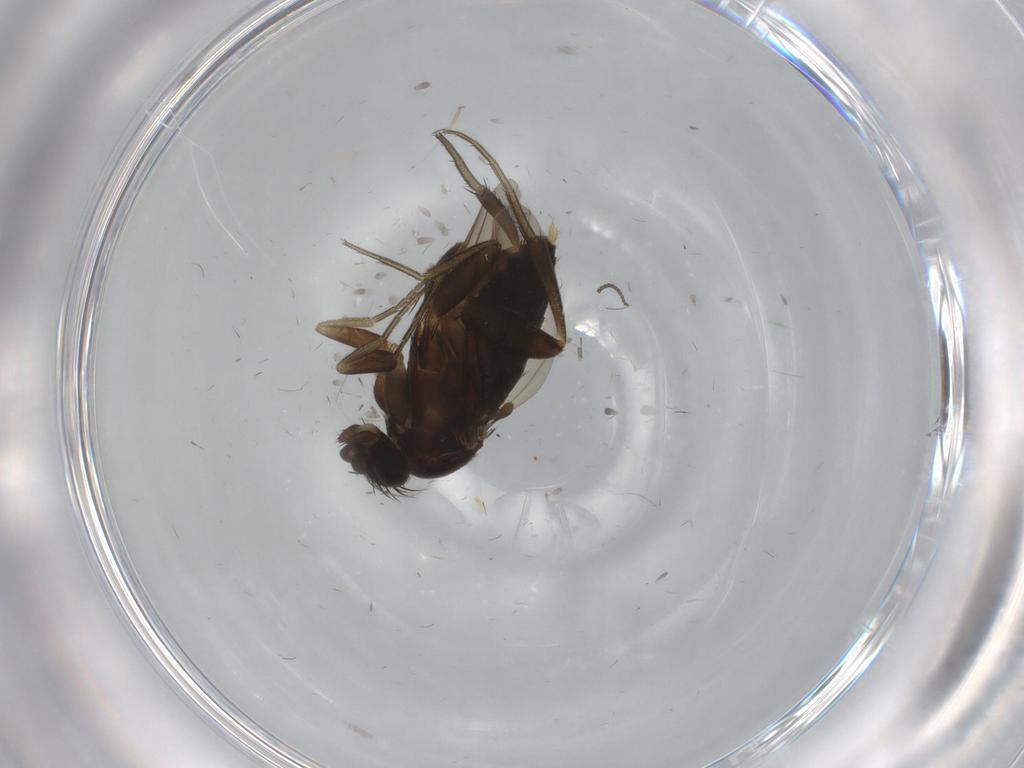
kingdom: Animalia
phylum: Arthropoda
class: Insecta
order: Diptera
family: Phoridae
